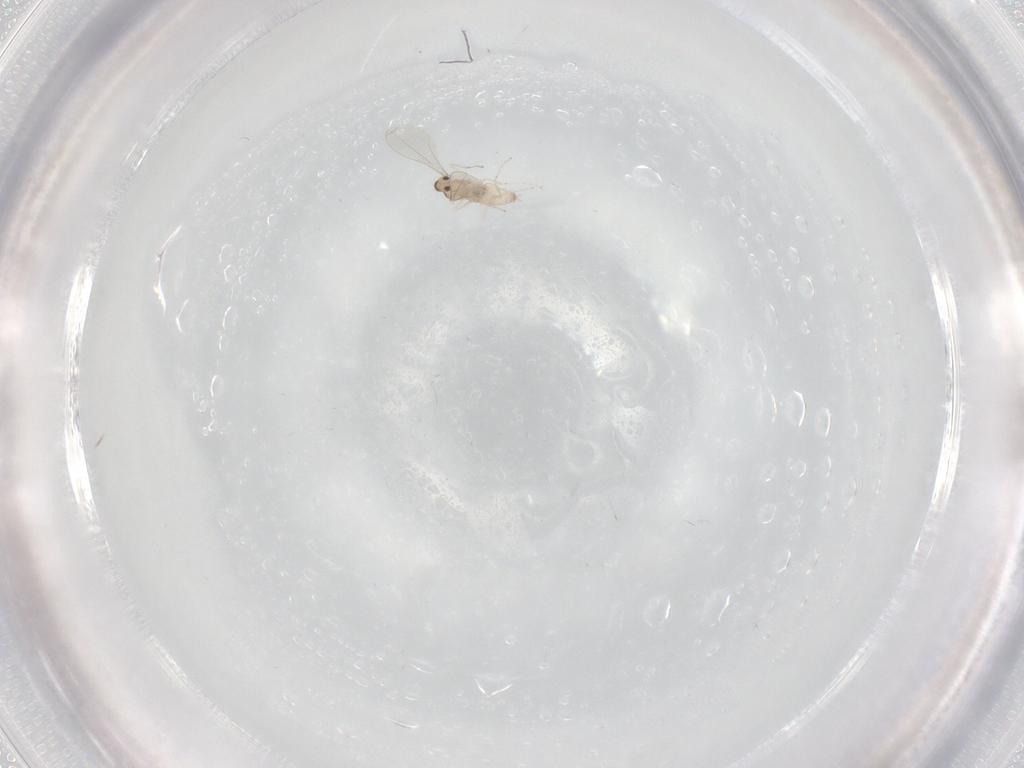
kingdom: Animalia
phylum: Arthropoda
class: Insecta
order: Diptera
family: Cecidomyiidae
